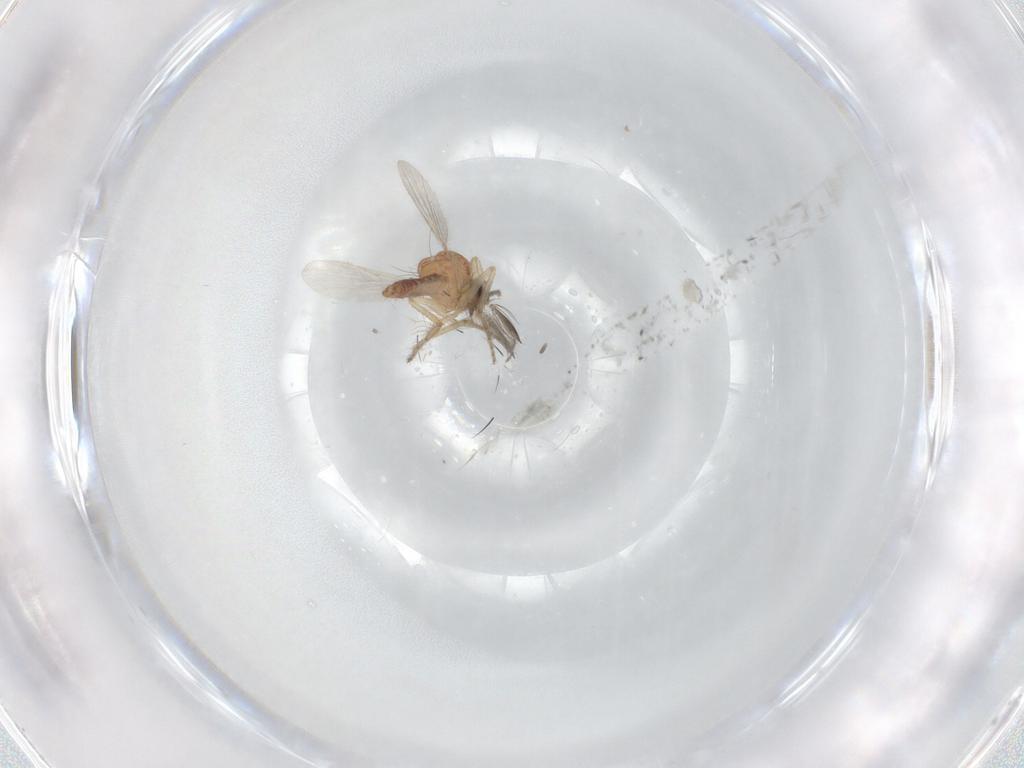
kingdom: Animalia
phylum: Arthropoda
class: Insecta
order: Diptera
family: Ceratopogonidae
